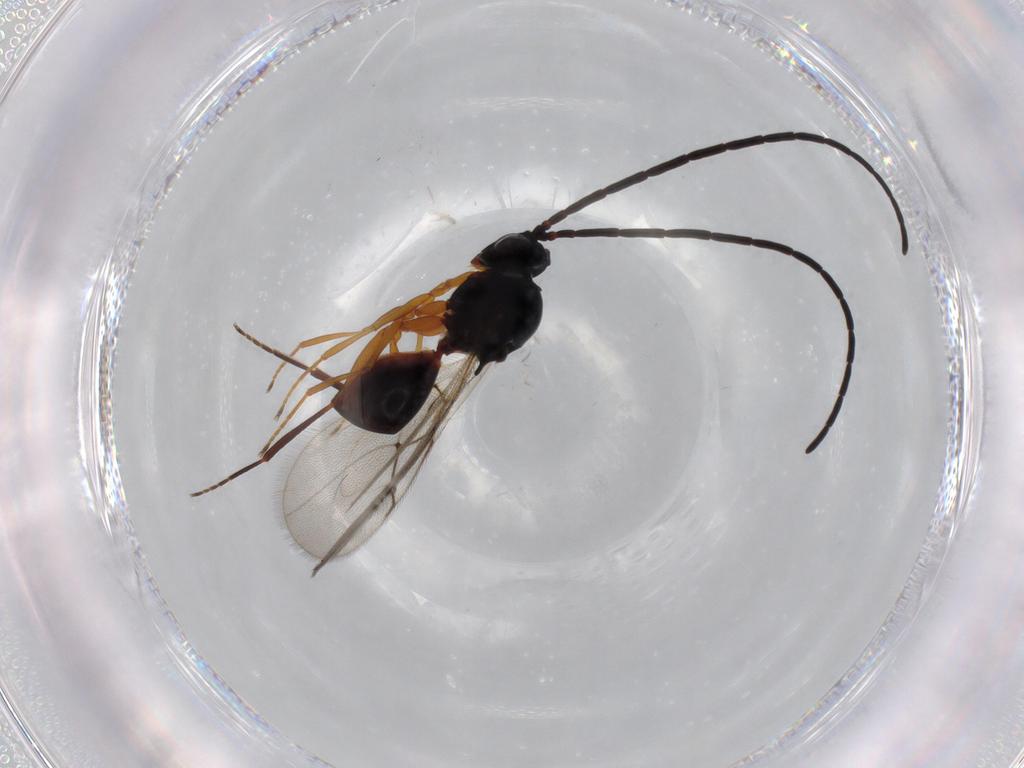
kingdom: Animalia
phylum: Arthropoda
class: Insecta
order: Hymenoptera
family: Figitidae
